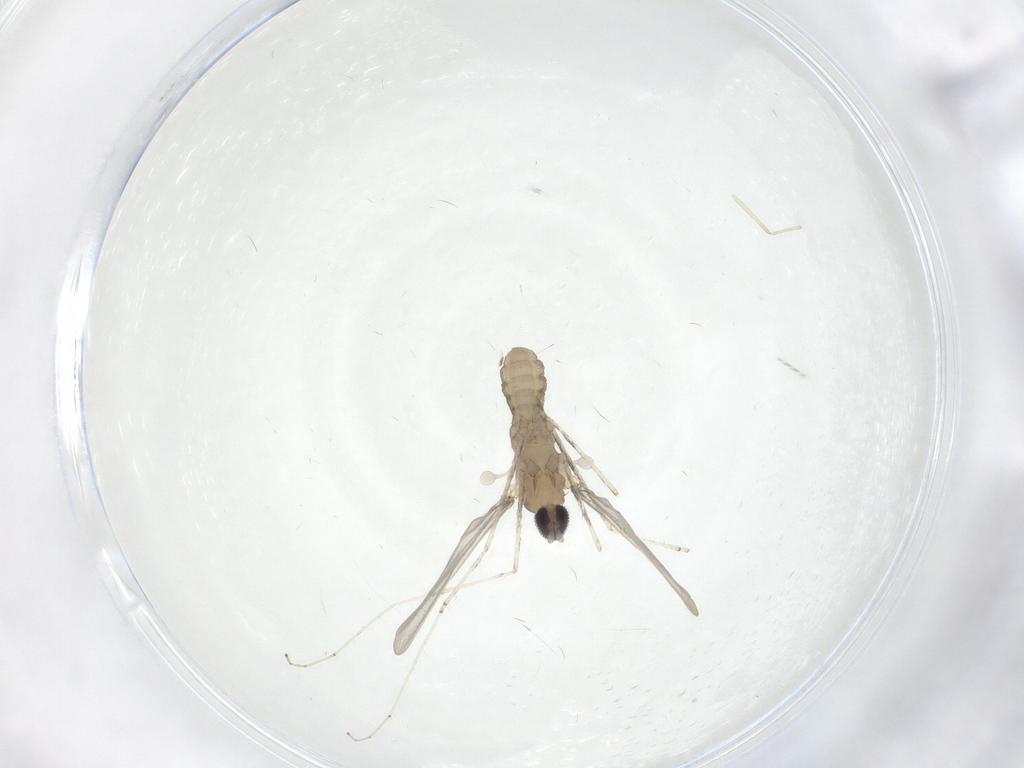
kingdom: Animalia
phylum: Arthropoda
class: Insecta
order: Diptera
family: Cecidomyiidae
